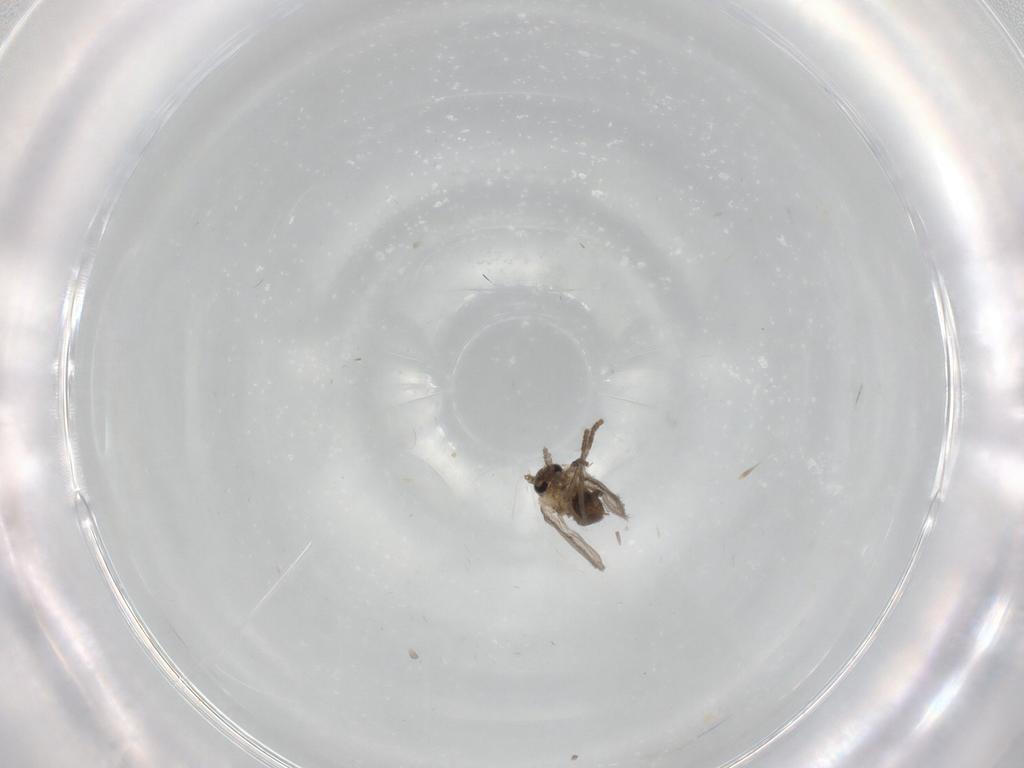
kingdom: Animalia
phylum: Arthropoda
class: Insecta
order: Diptera
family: Psychodidae
